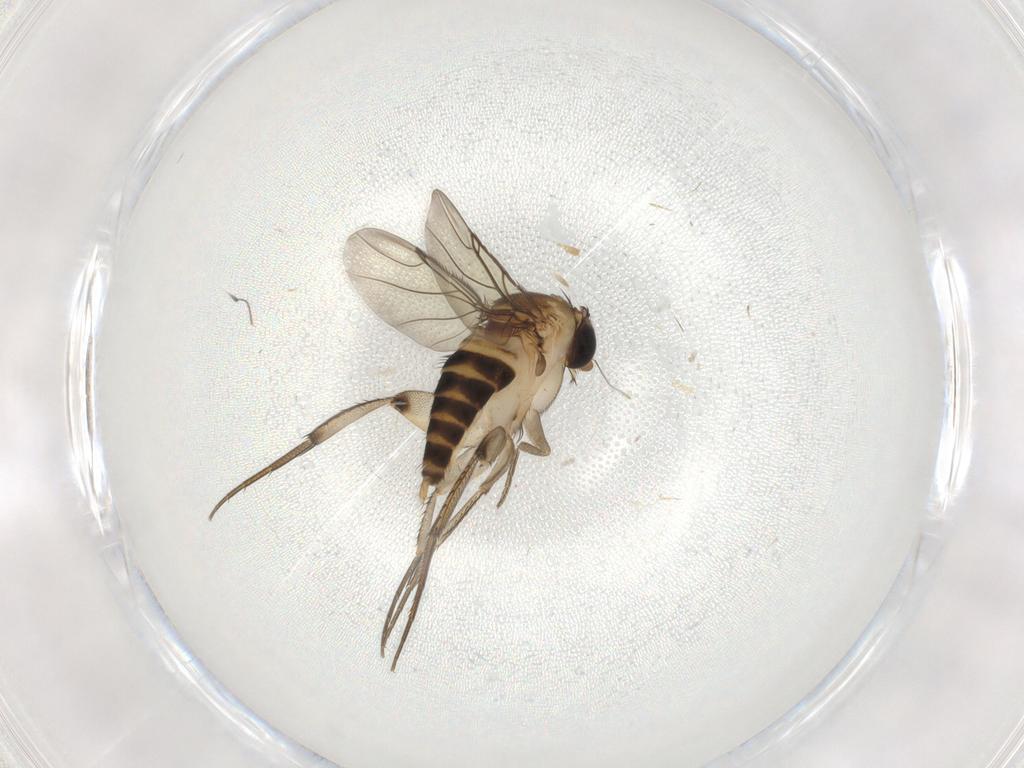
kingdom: Animalia
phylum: Arthropoda
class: Insecta
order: Diptera
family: Phoridae
